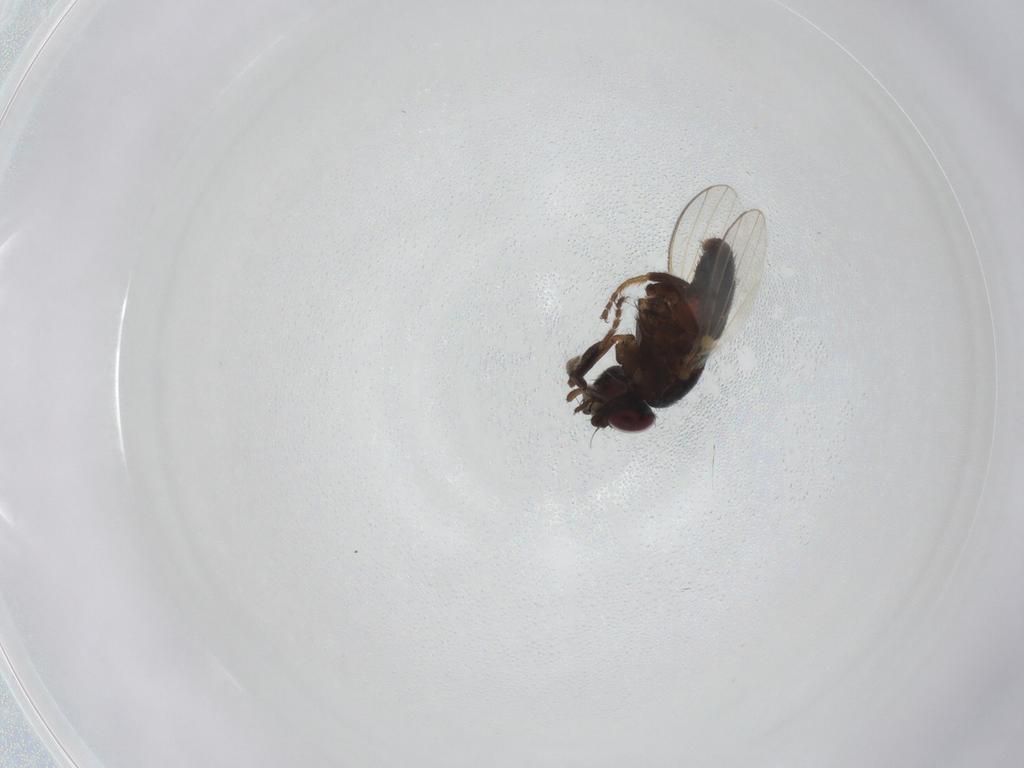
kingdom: Animalia
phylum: Arthropoda
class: Insecta
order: Diptera
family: Milichiidae
